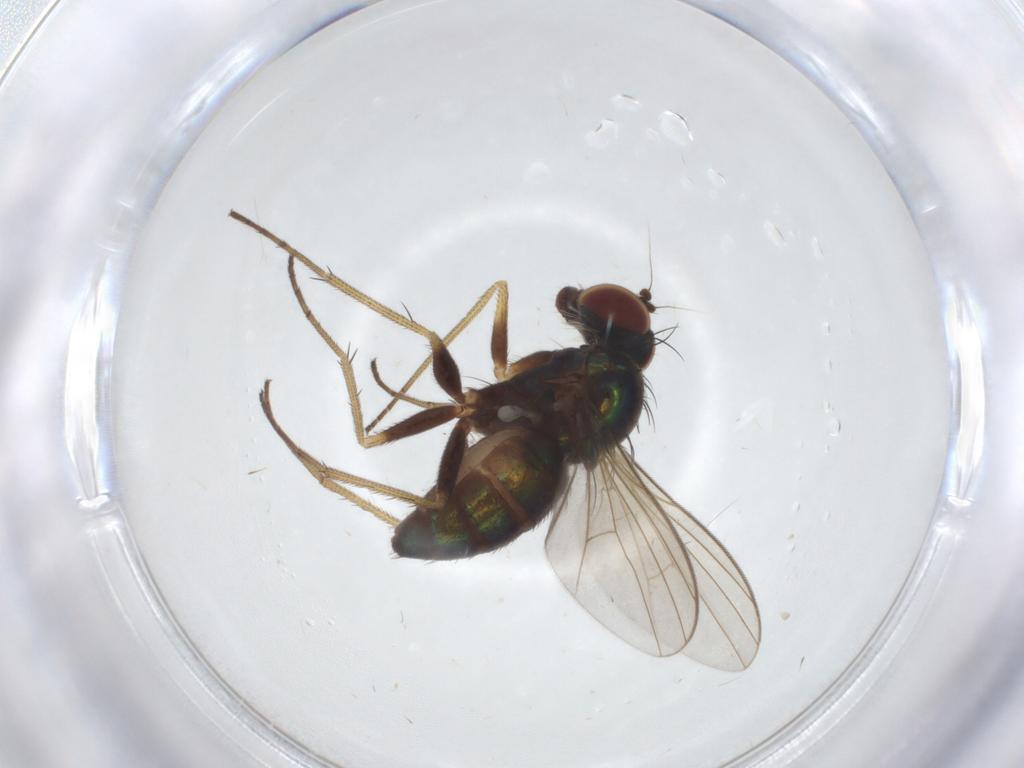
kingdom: Animalia
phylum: Arthropoda
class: Insecta
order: Diptera
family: Dolichopodidae
